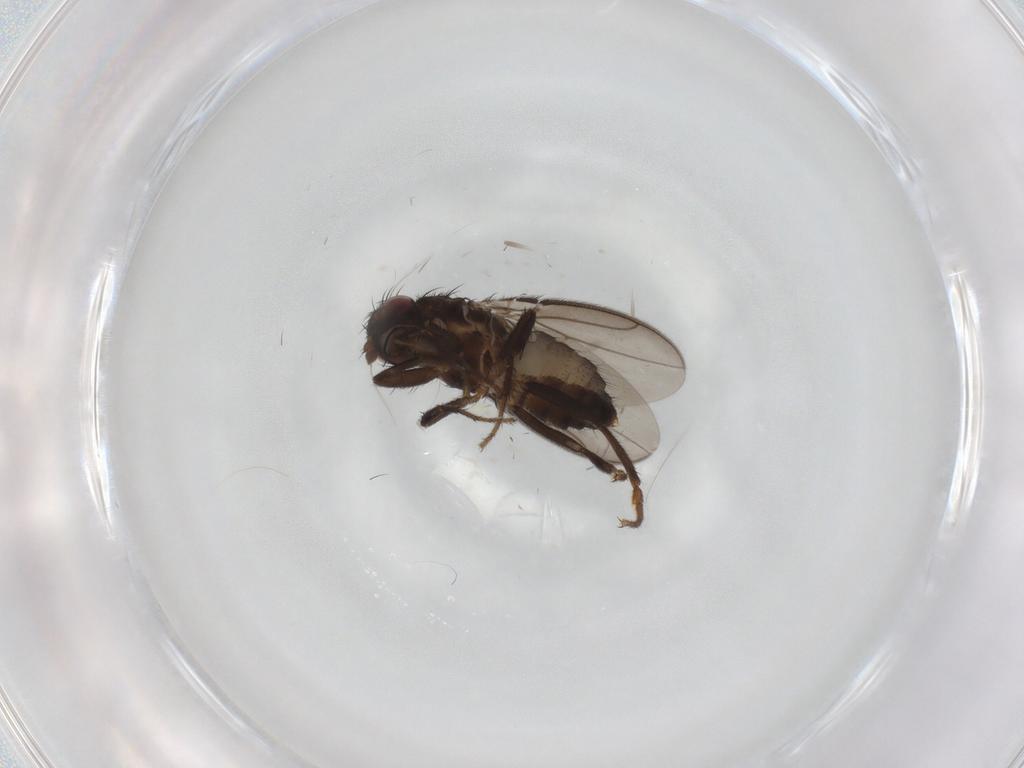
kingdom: Animalia
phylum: Arthropoda
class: Insecta
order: Diptera
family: Sphaeroceridae
